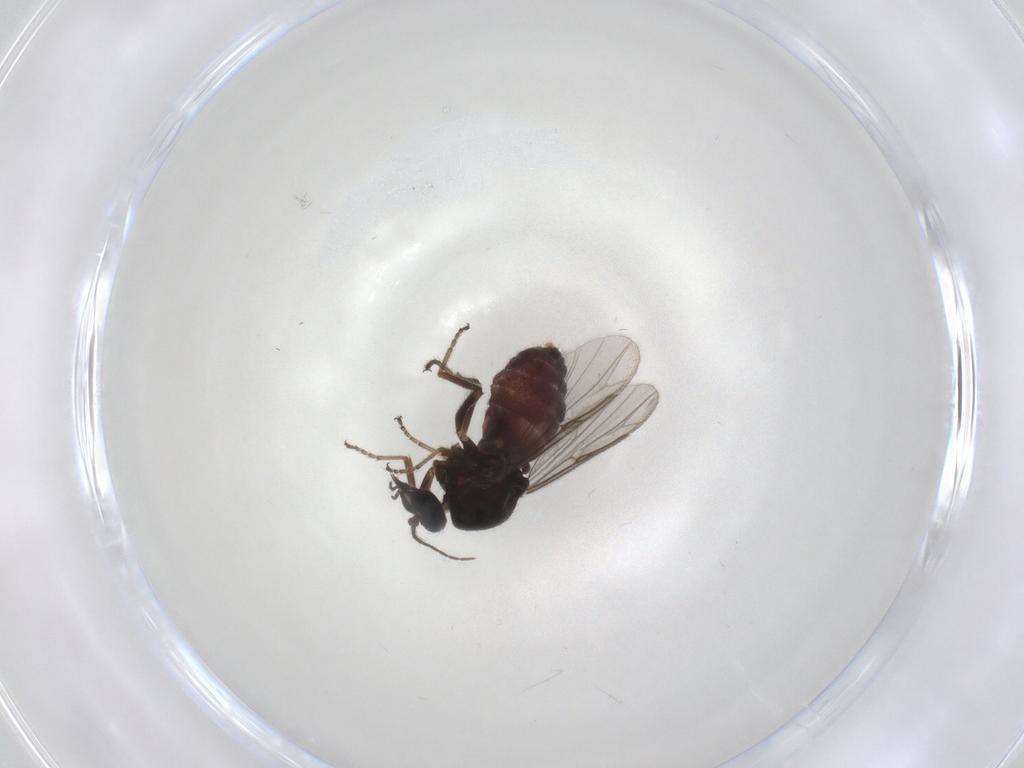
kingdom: Animalia
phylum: Arthropoda
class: Insecta
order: Diptera
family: Ceratopogonidae
